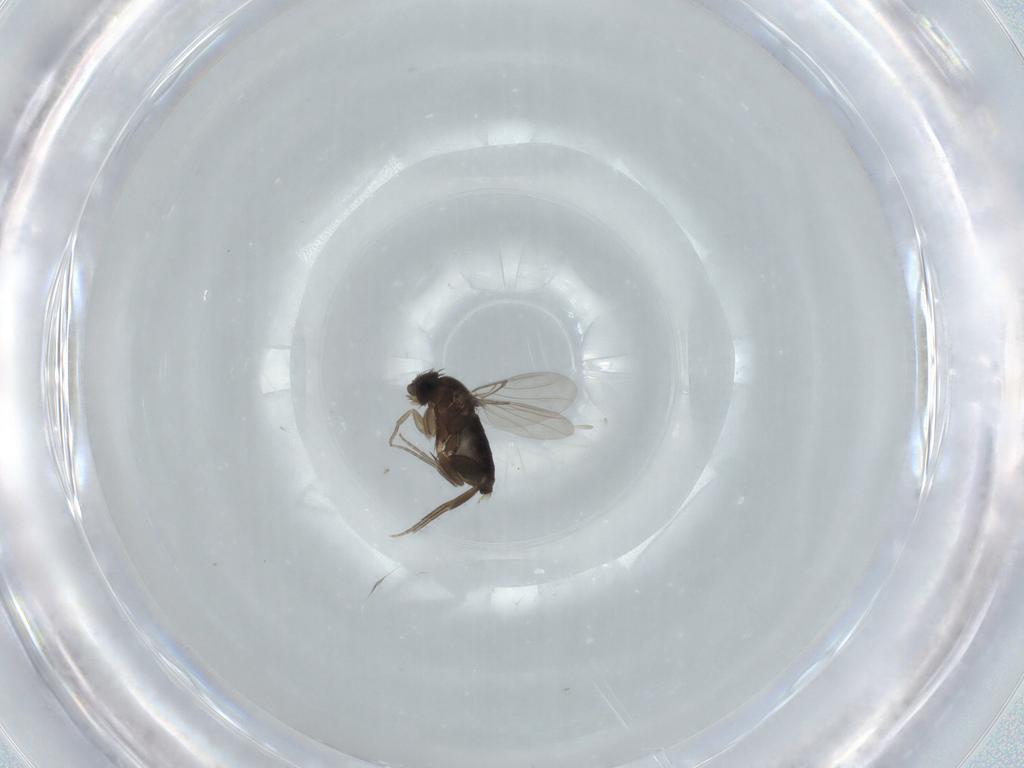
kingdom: Animalia
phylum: Arthropoda
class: Insecta
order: Diptera
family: Phoridae
